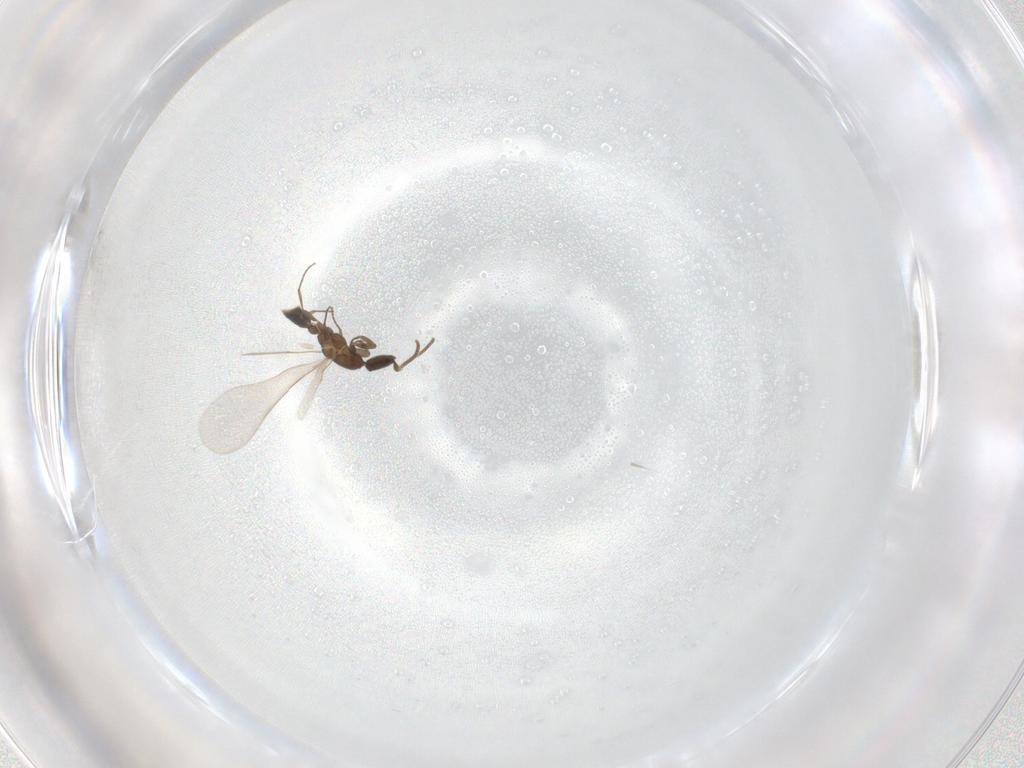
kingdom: Animalia
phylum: Arthropoda
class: Insecta
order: Hymenoptera
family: Formicidae
